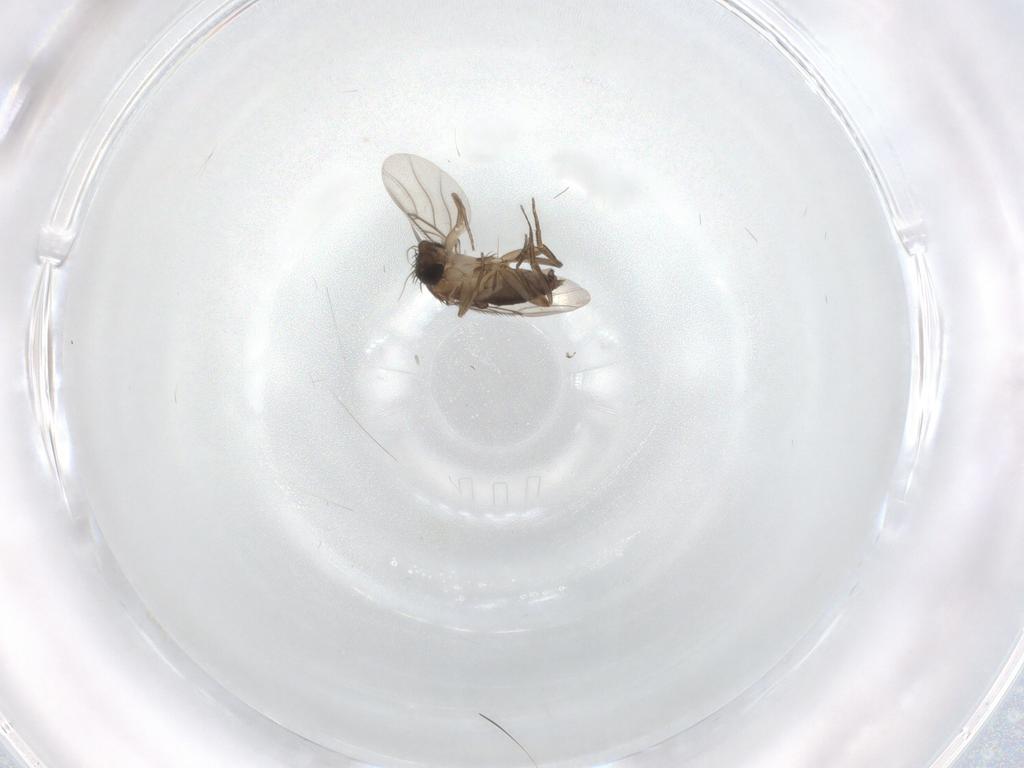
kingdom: Animalia
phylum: Arthropoda
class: Insecta
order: Diptera
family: Phoridae
